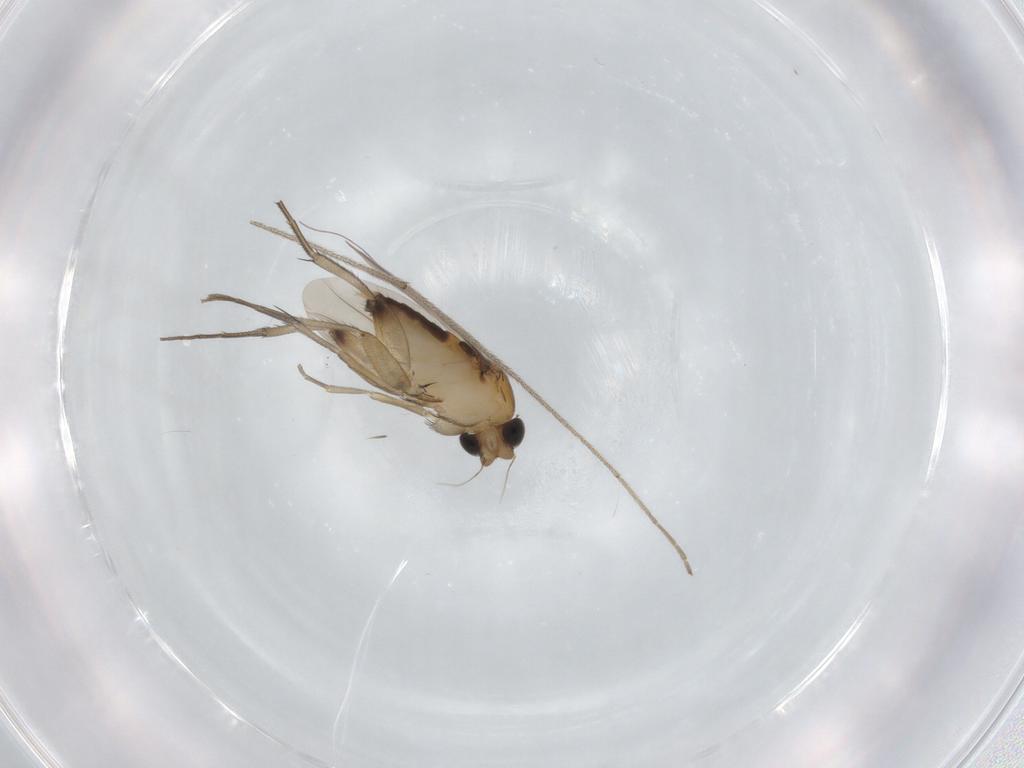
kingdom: Animalia
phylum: Arthropoda
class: Insecta
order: Diptera
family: Phoridae
